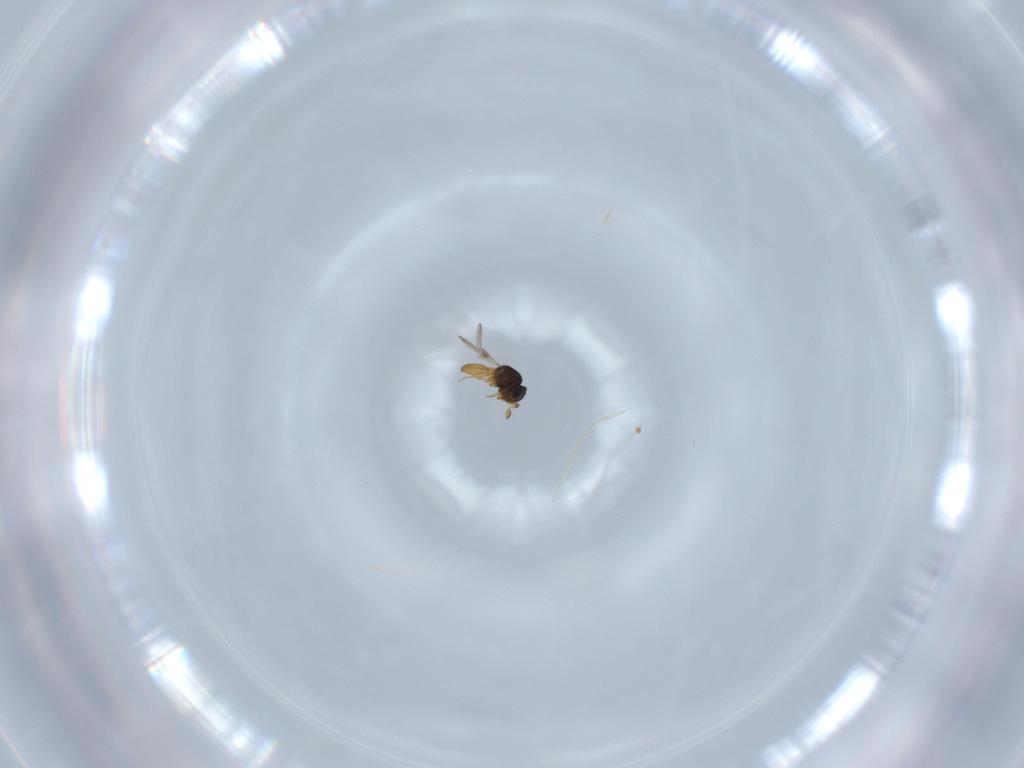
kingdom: Animalia
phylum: Arthropoda
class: Insecta
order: Hymenoptera
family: Scelionidae
